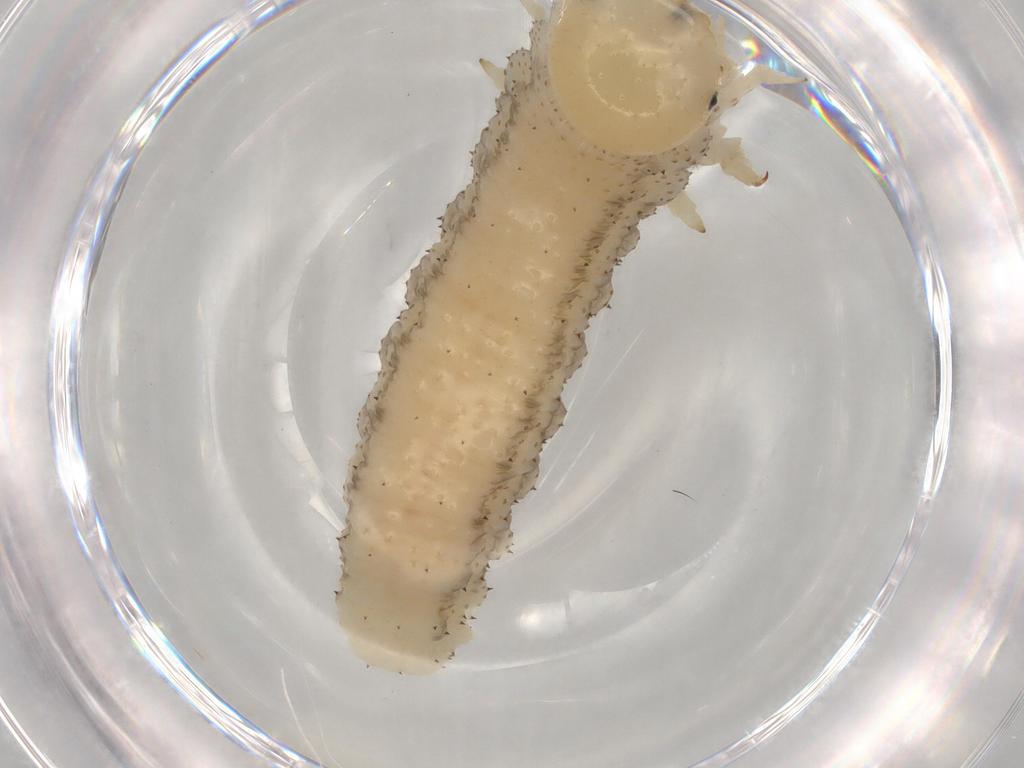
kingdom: Animalia
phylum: Arthropoda
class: Insecta
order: Hymenoptera
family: Tenthredinidae
